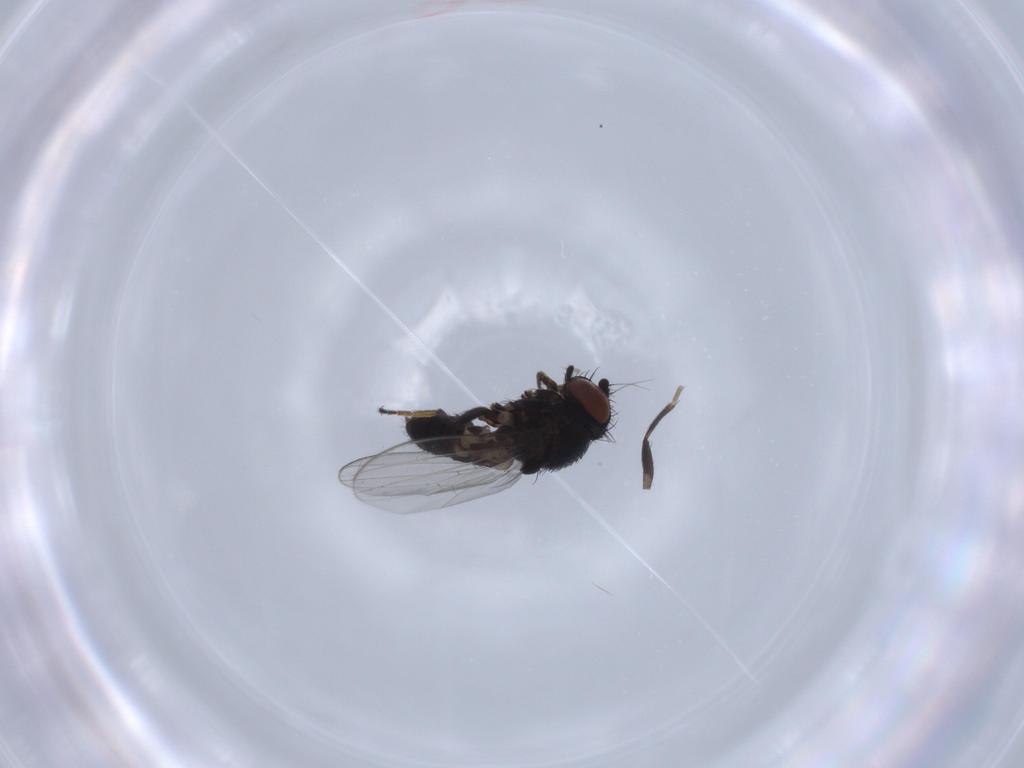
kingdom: Animalia
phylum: Arthropoda
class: Insecta
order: Diptera
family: Milichiidae
